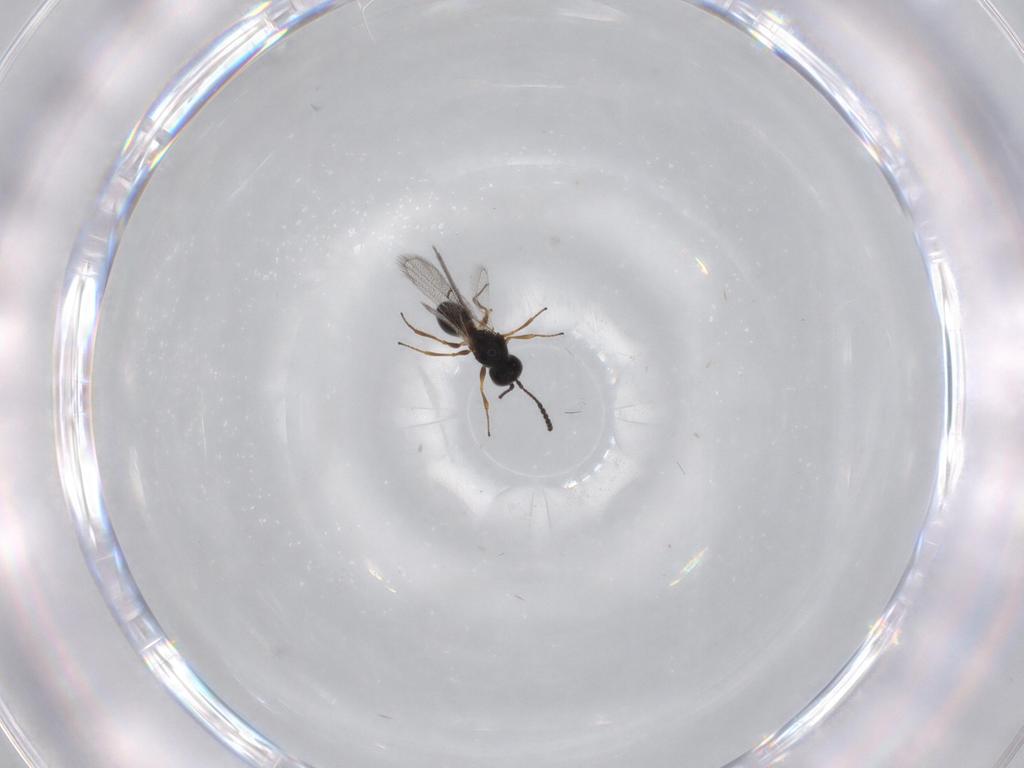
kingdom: Animalia
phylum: Arthropoda
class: Insecta
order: Hymenoptera
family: Figitidae
